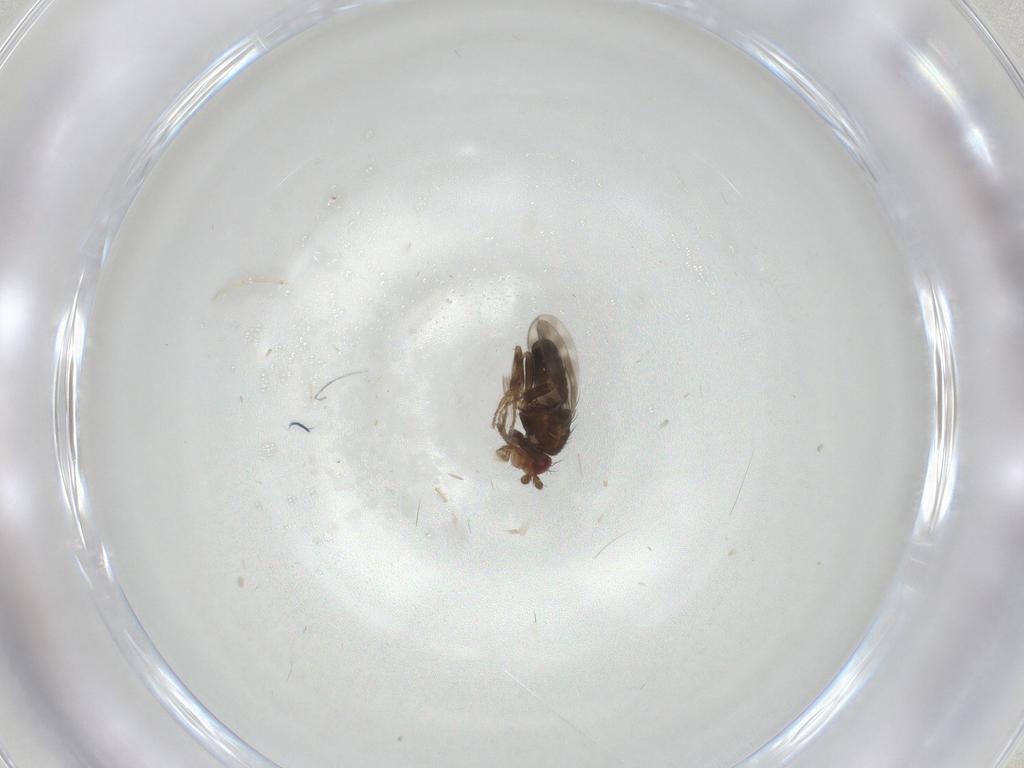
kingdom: Animalia
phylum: Arthropoda
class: Insecta
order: Diptera
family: Sphaeroceridae
